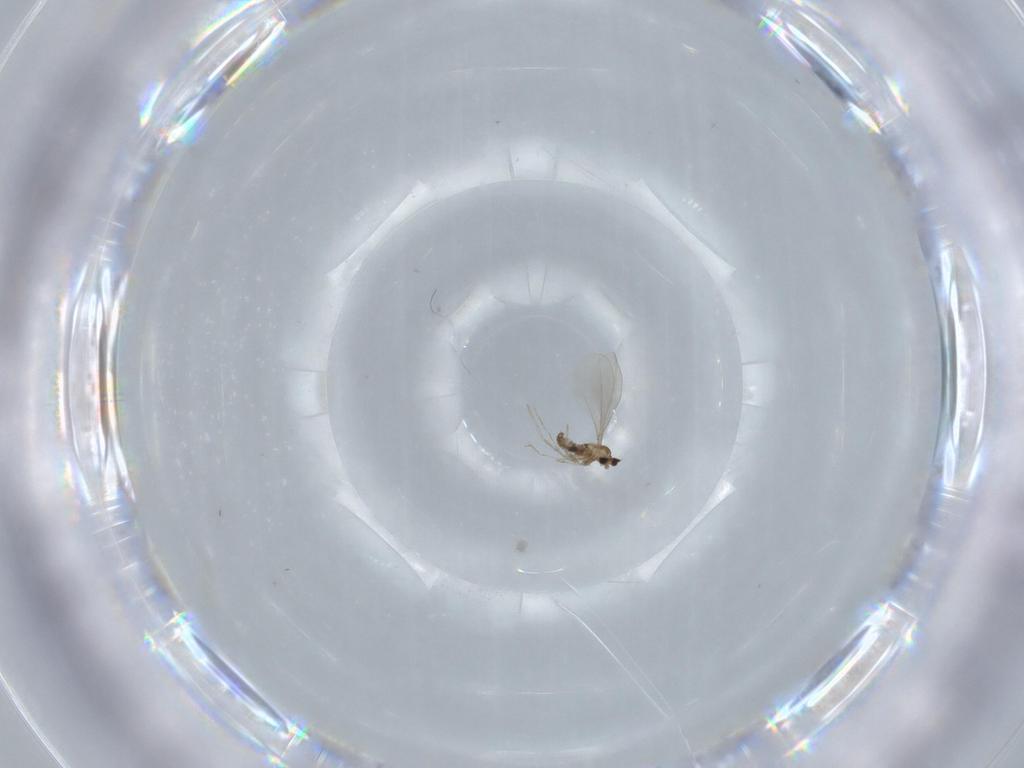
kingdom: Animalia
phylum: Arthropoda
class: Insecta
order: Diptera
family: Cecidomyiidae
